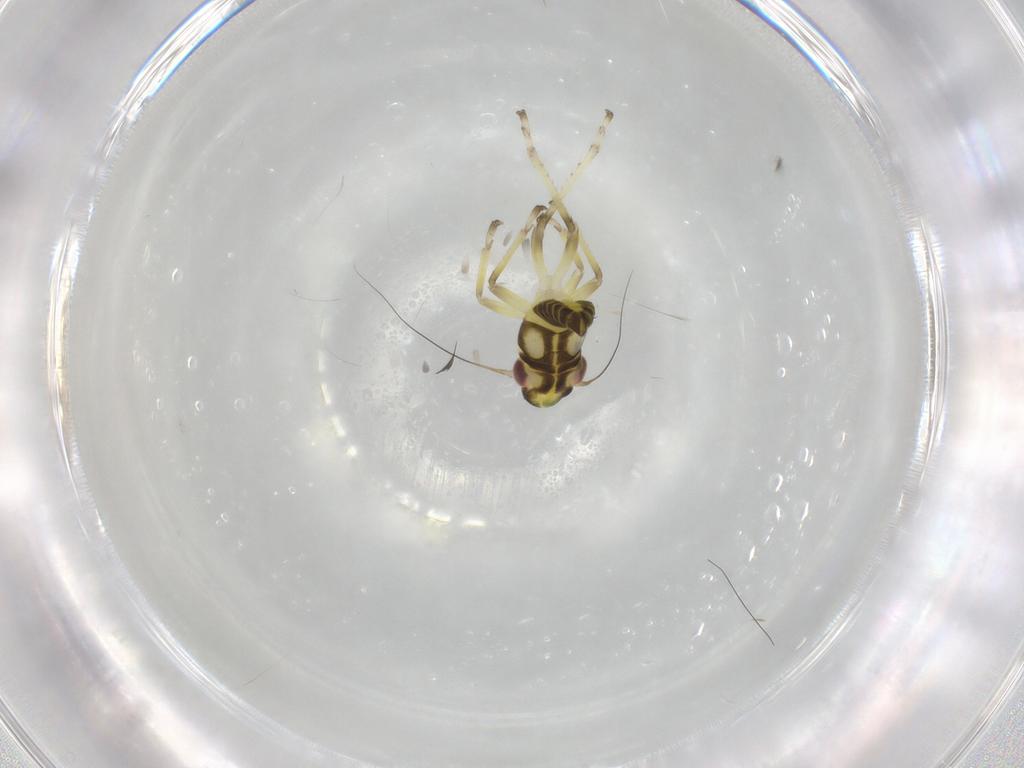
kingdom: Animalia
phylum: Arthropoda
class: Insecta
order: Hemiptera
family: Cicadellidae
